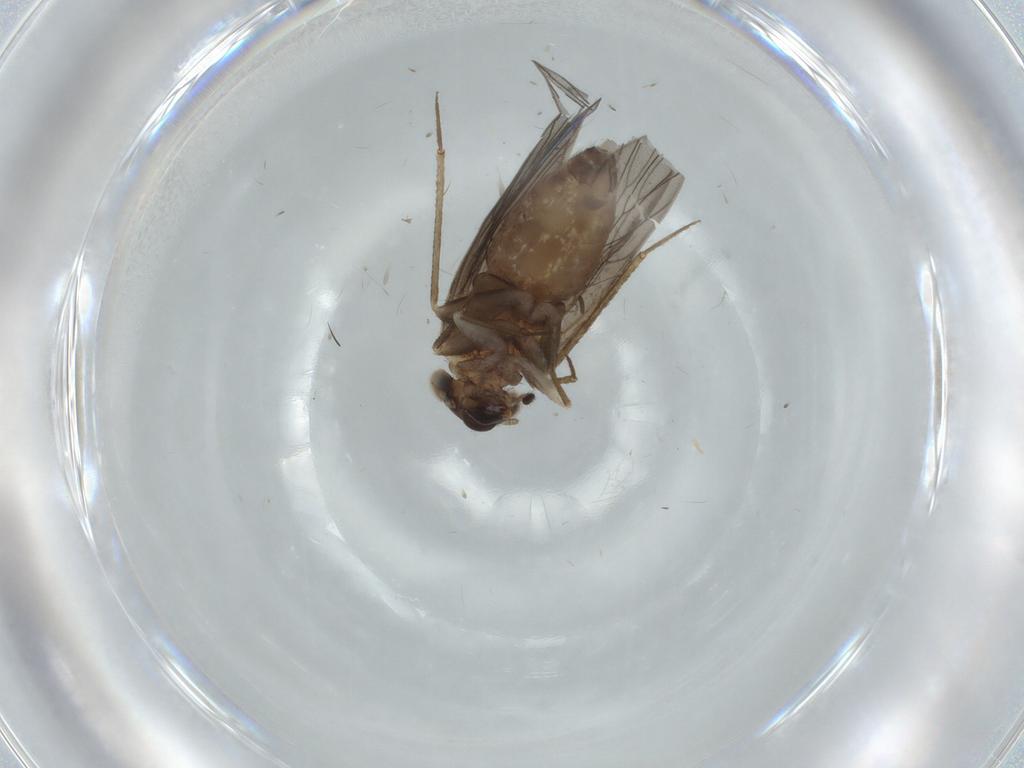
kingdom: Animalia
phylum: Arthropoda
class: Insecta
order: Psocodea
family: Lepidopsocidae
